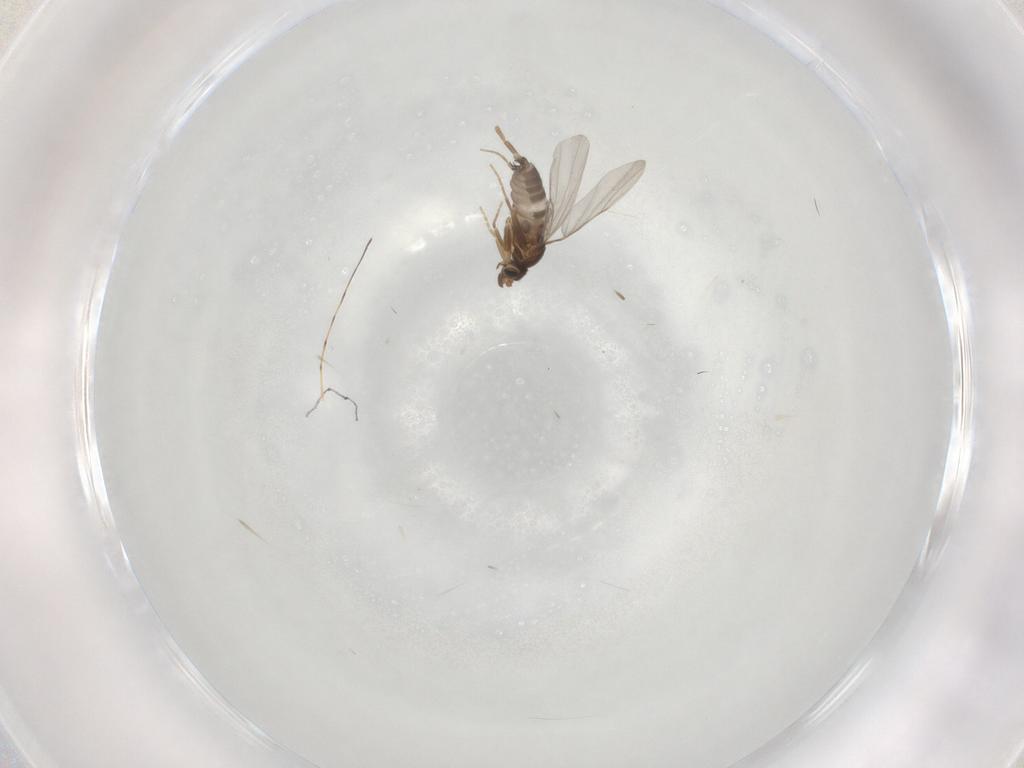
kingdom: Animalia
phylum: Arthropoda
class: Insecta
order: Diptera
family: Phoridae
